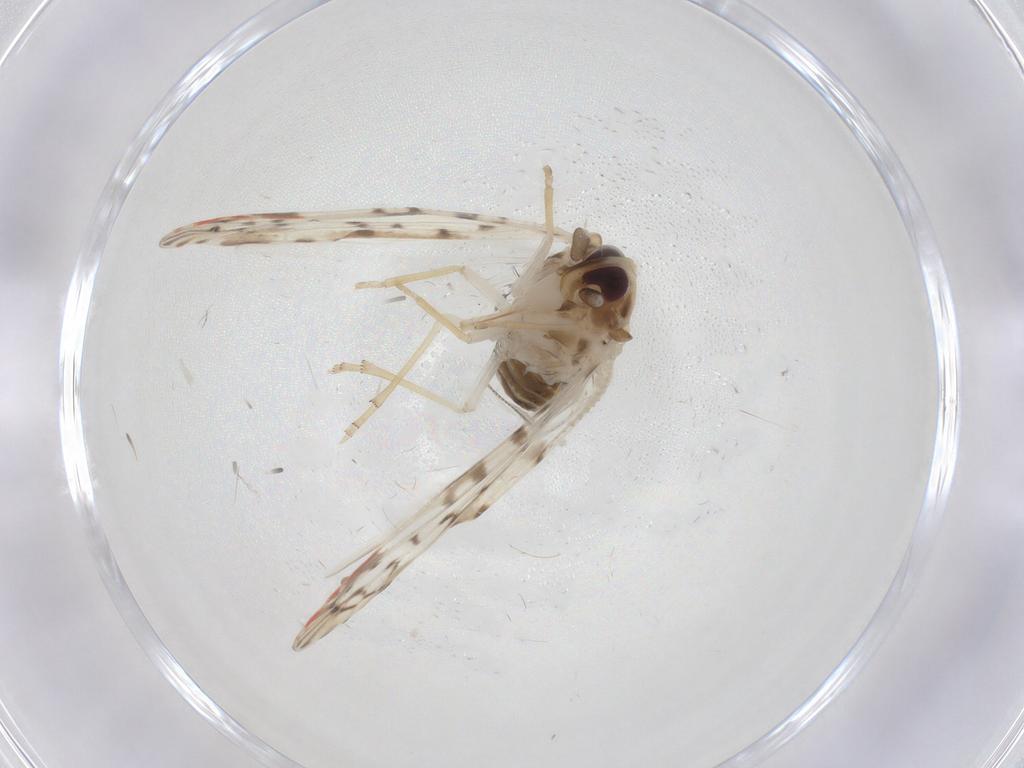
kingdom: Animalia
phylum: Arthropoda
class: Insecta
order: Hemiptera
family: Derbidae
